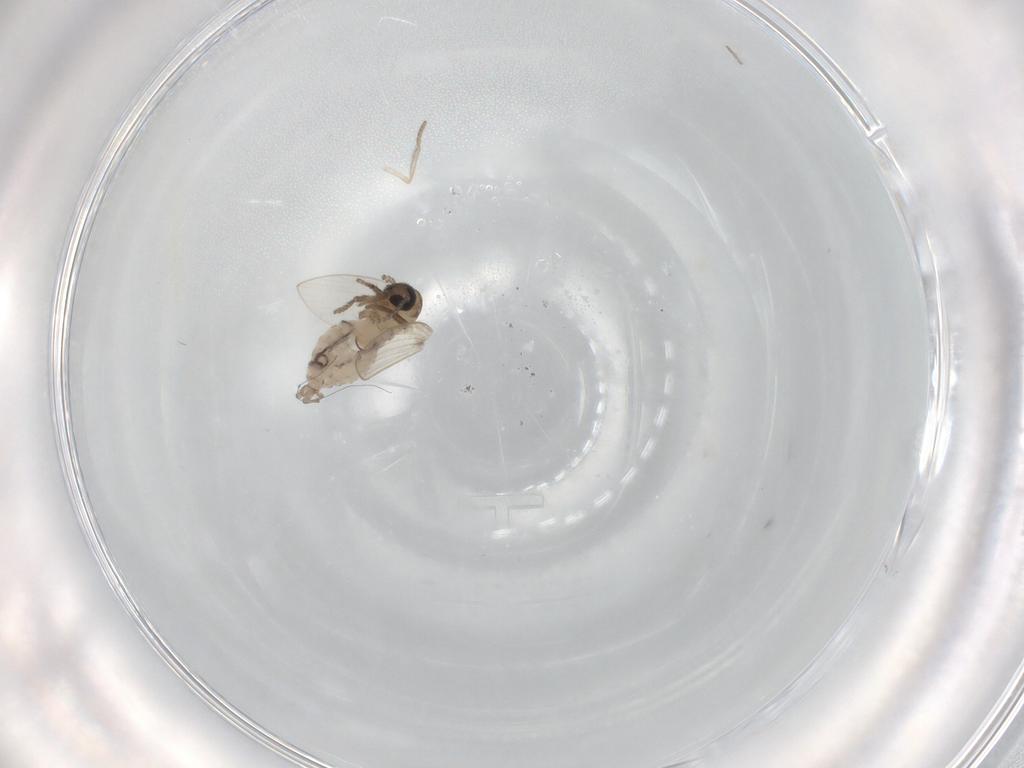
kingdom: Animalia
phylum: Arthropoda
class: Insecta
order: Diptera
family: Psychodidae
